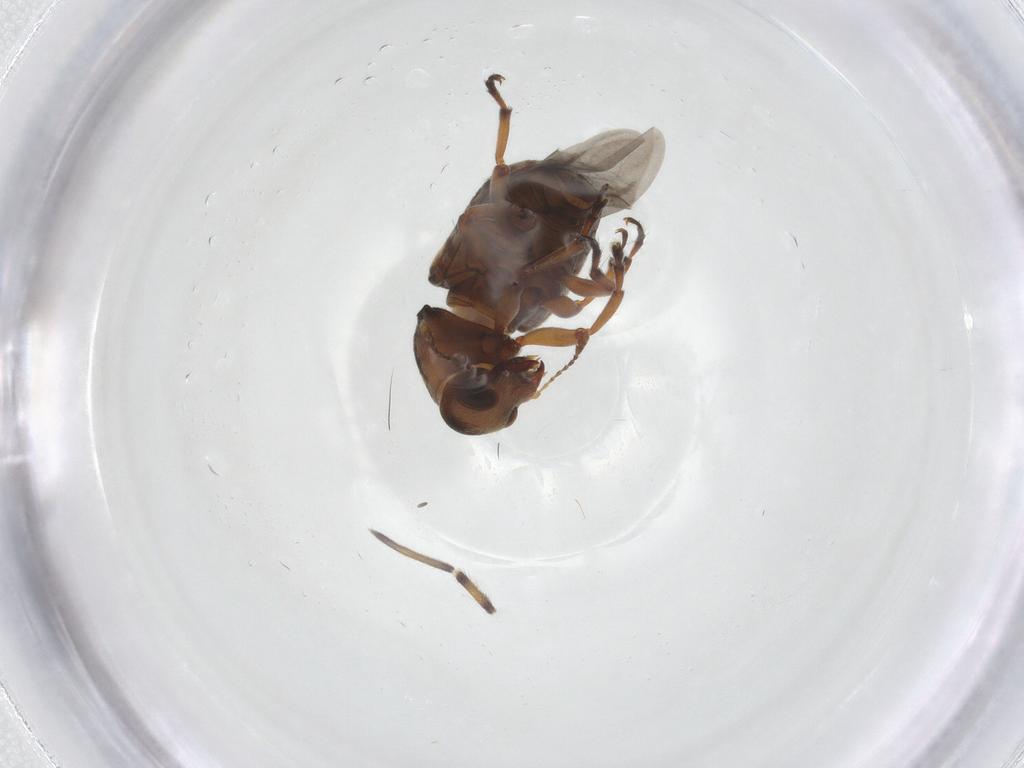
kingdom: Animalia
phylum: Arthropoda
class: Insecta
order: Coleoptera
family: Anthribidae
